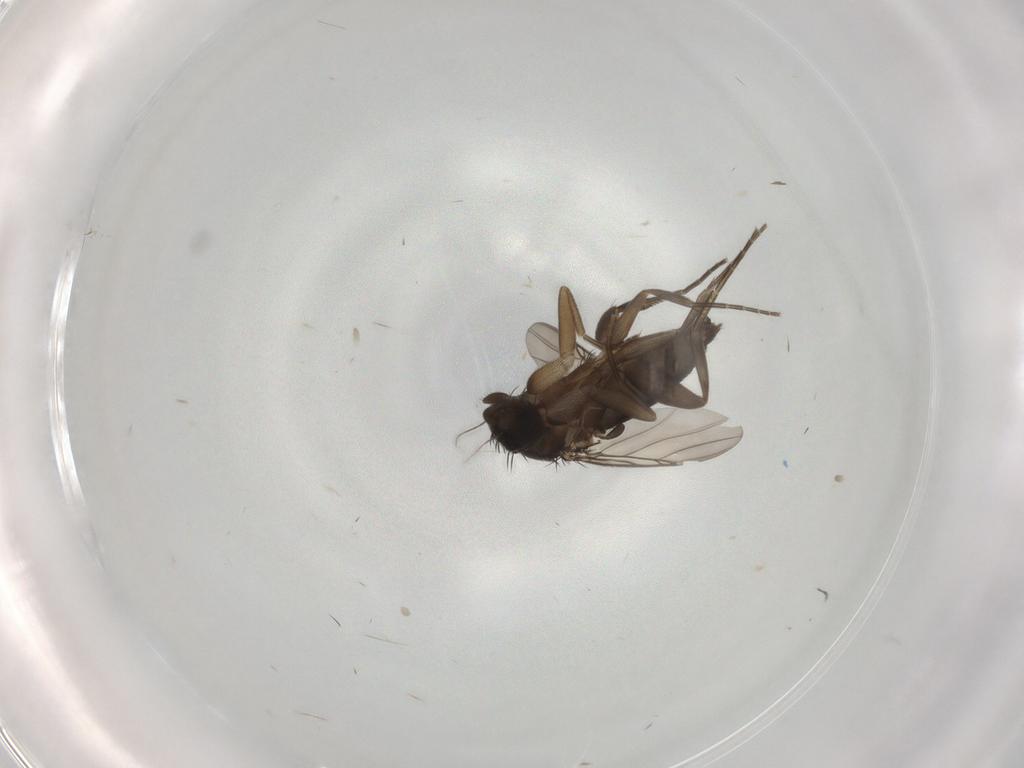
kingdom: Animalia
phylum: Arthropoda
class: Insecta
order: Diptera
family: Phoridae
